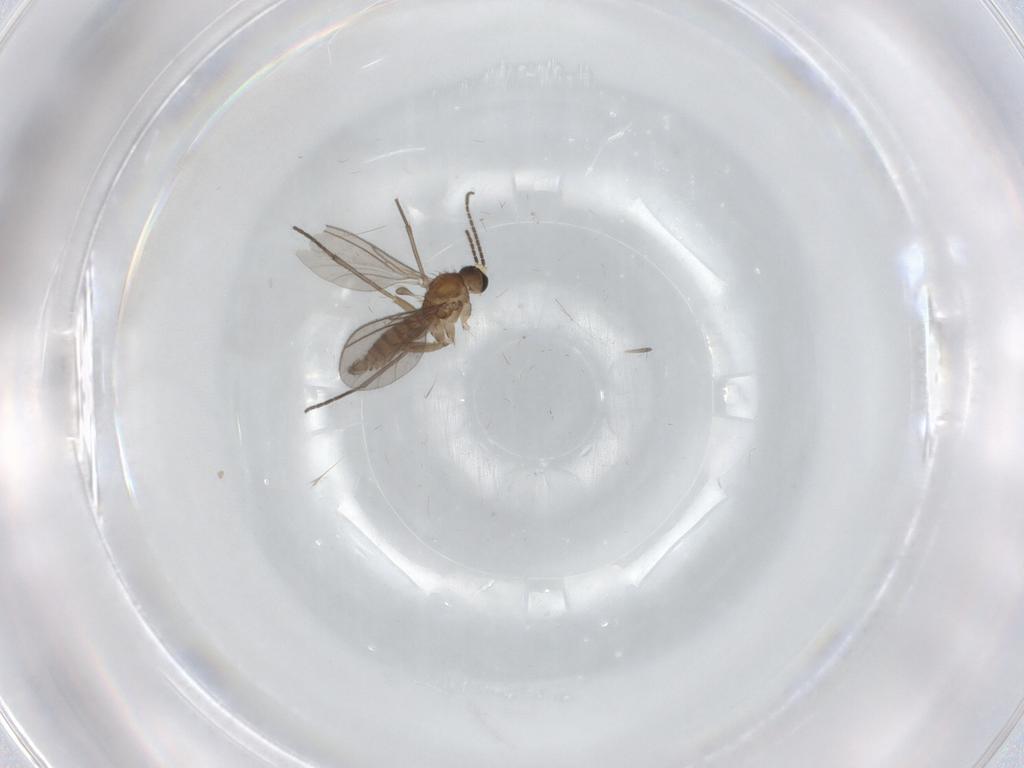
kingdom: Animalia
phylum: Arthropoda
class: Insecta
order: Diptera
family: Sciaridae
